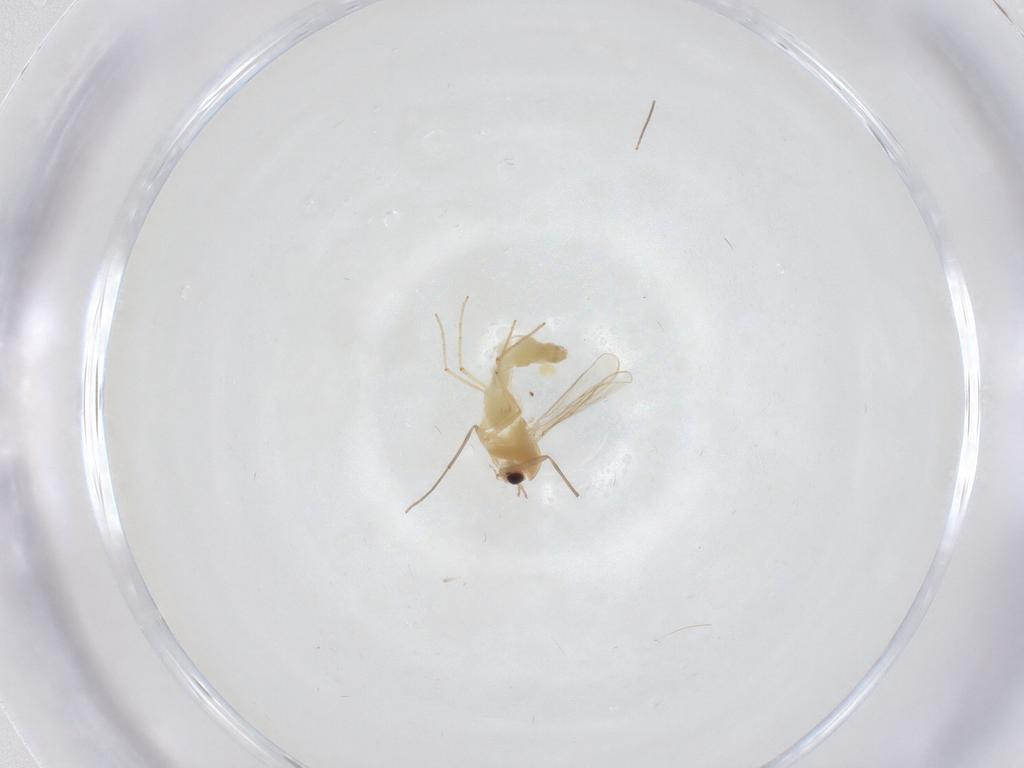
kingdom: Animalia
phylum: Arthropoda
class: Insecta
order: Diptera
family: Chironomidae
